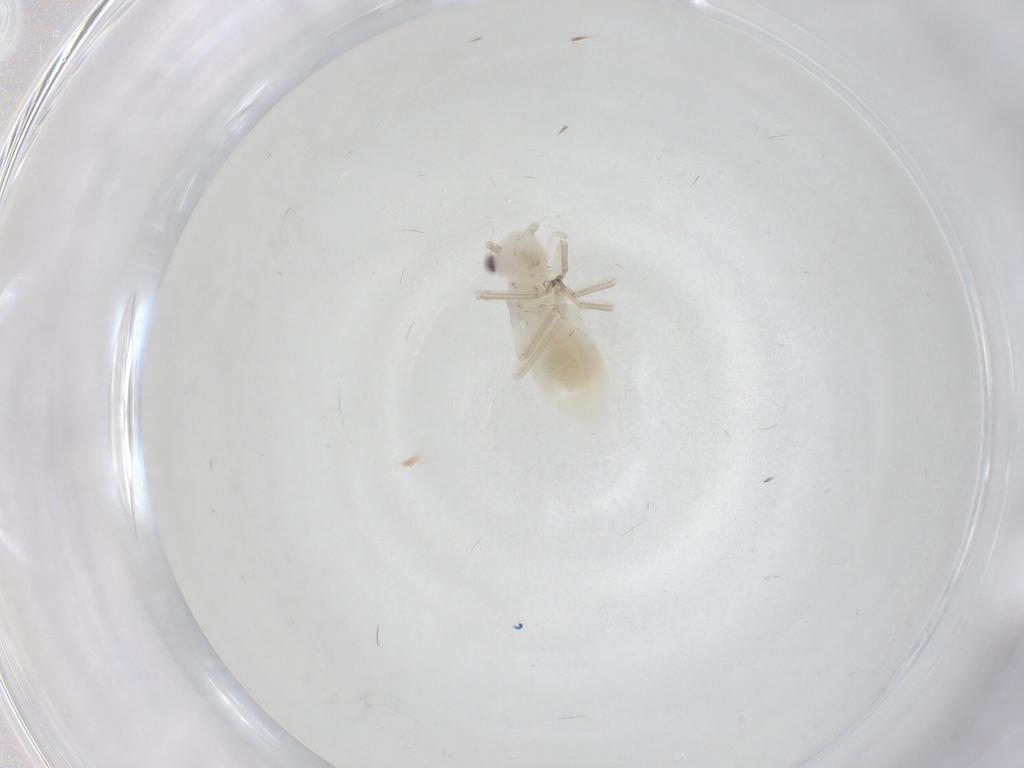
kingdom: Animalia
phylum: Arthropoda
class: Insecta
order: Psocodea
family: Caeciliusidae
